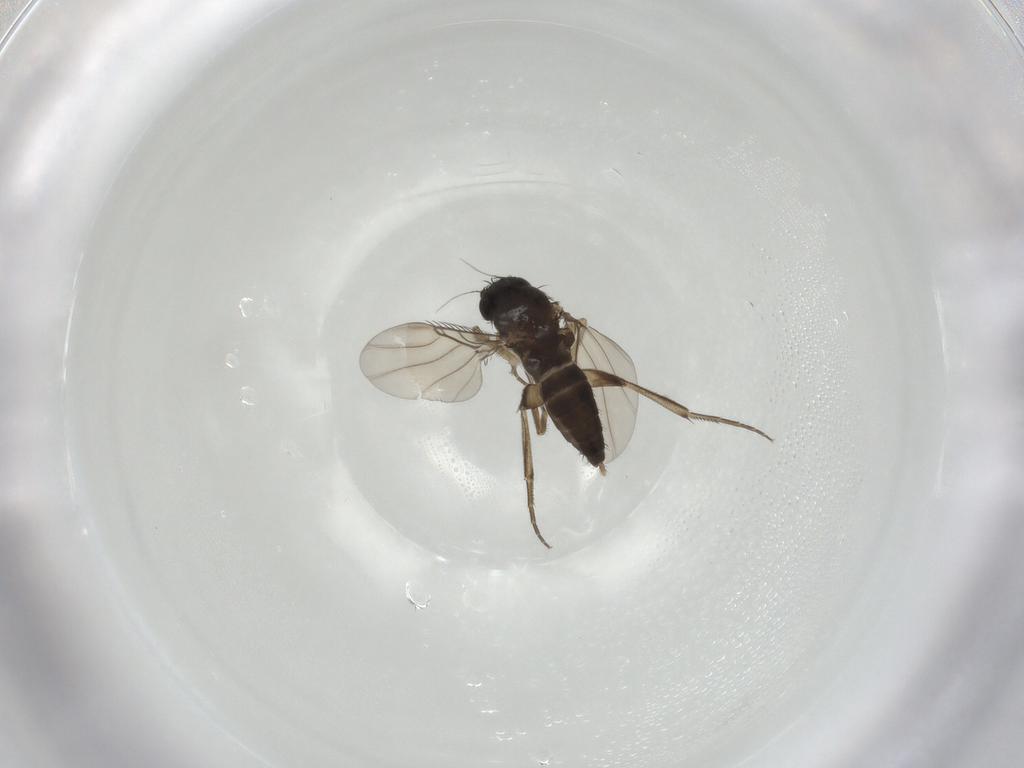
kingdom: Animalia
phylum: Arthropoda
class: Insecta
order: Diptera
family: Phoridae
